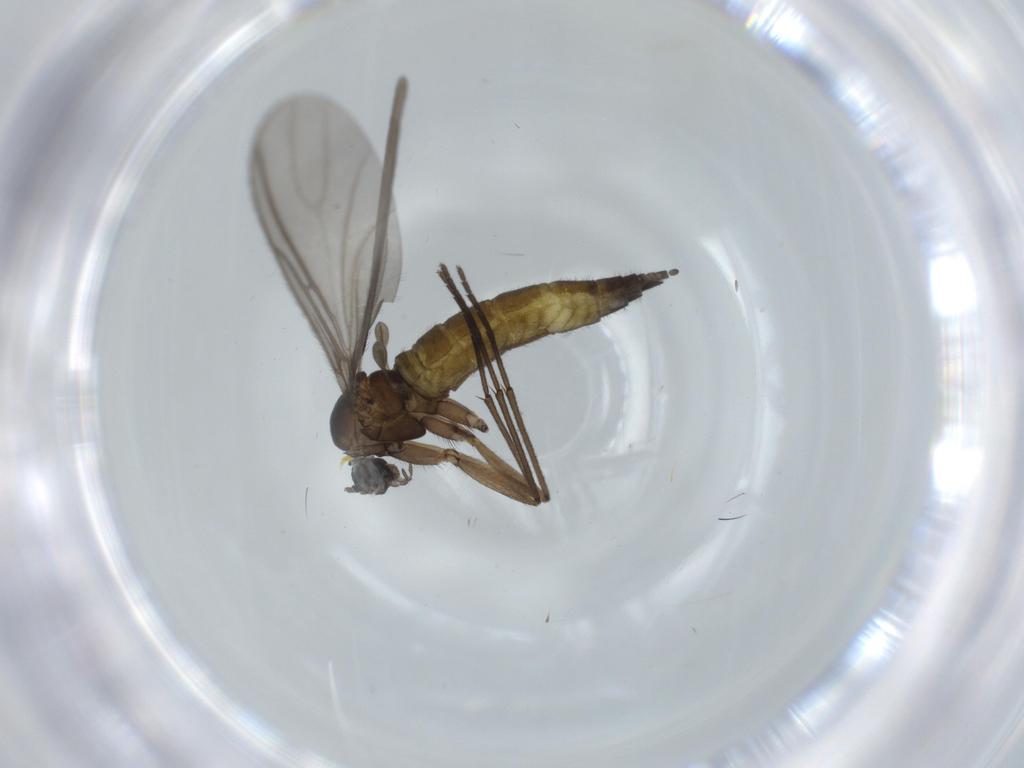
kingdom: Animalia
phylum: Arthropoda
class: Insecta
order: Diptera
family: Sciaridae
